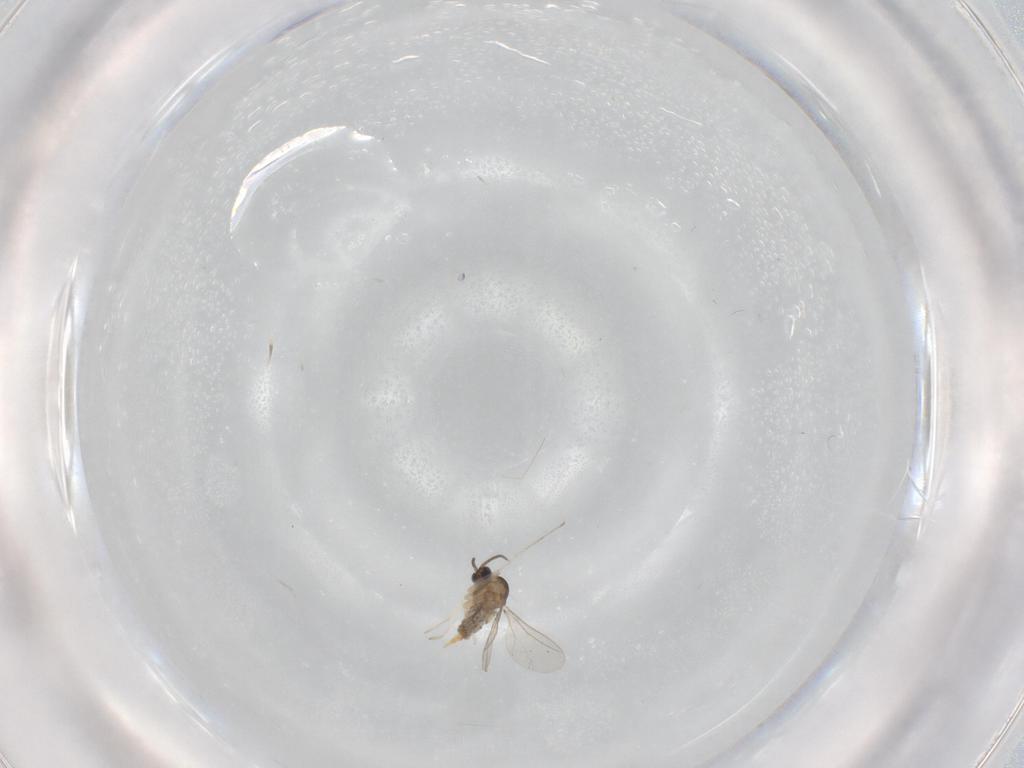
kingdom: Animalia
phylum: Arthropoda
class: Insecta
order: Diptera
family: Cecidomyiidae
